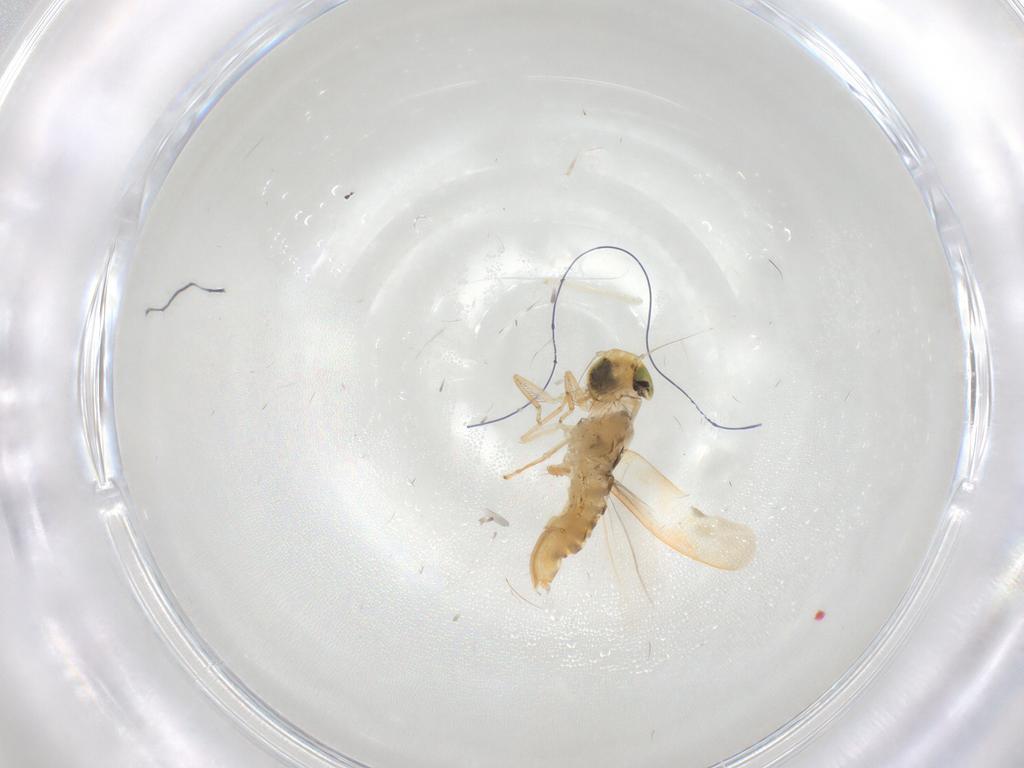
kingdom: Animalia
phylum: Arthropoda
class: Insecta
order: Hemiptera
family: Cicadellidae
